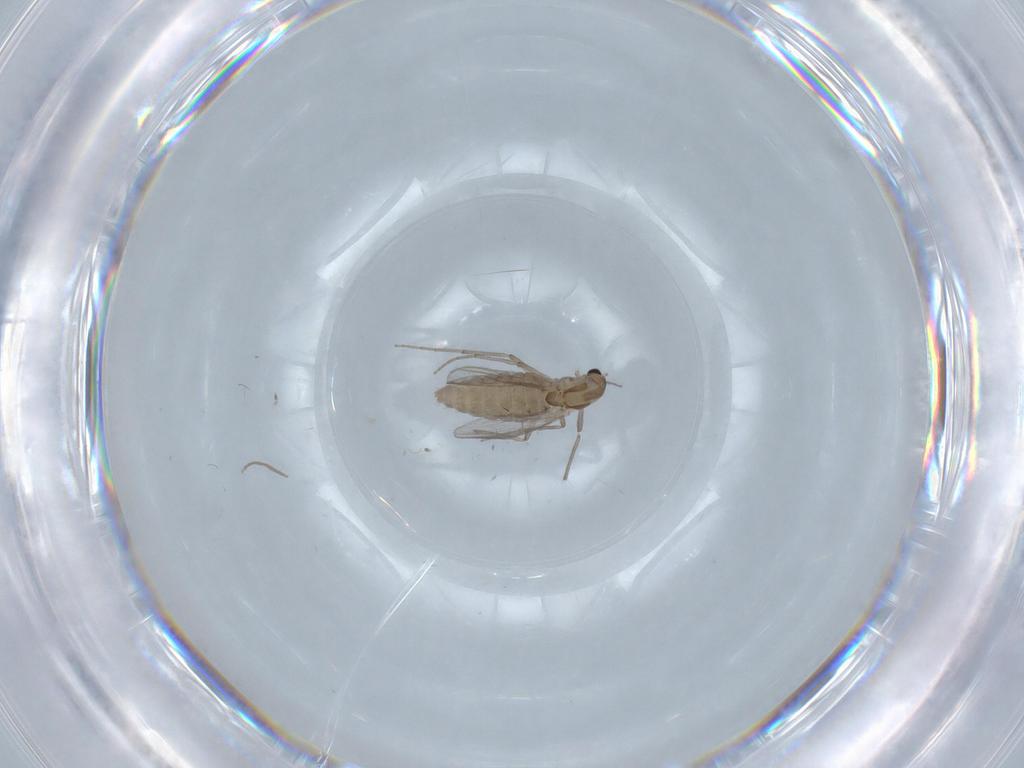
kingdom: Animalia
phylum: Arthropoda
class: Insecta
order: Diptera
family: Chironomidae
